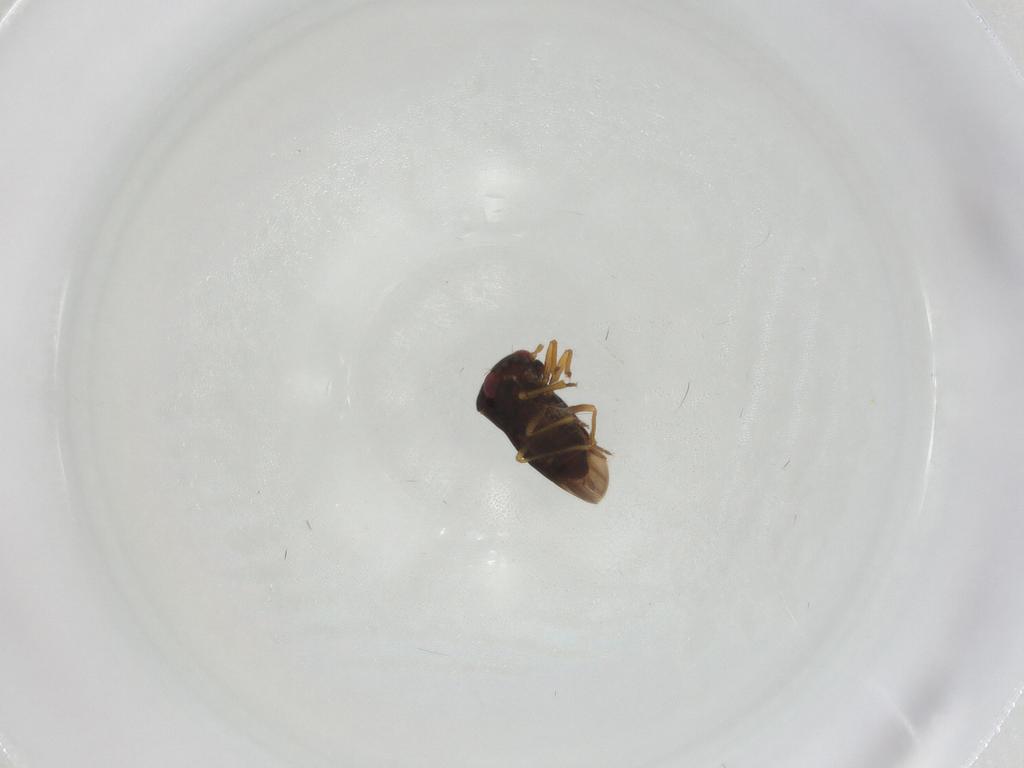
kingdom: Animalia
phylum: Arthropoda
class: Insecta
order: Hemiptera
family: Schizopteridae
